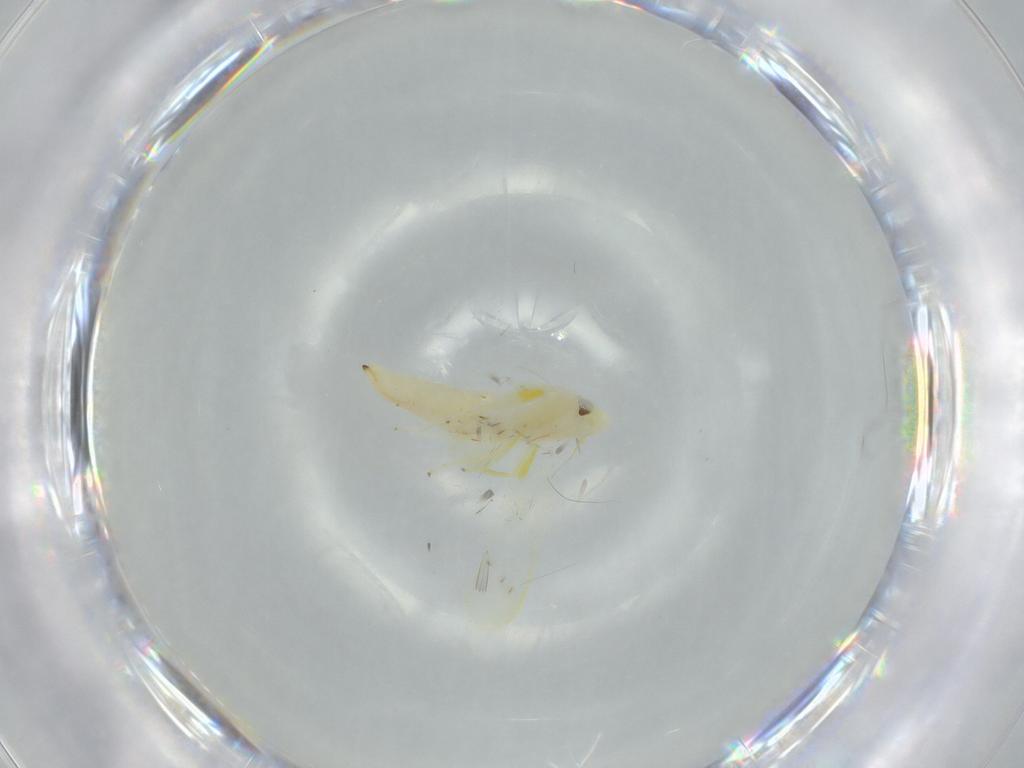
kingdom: Animalia
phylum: Arthropoda
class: Insecta
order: Hemiptera
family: Cicadellidae
